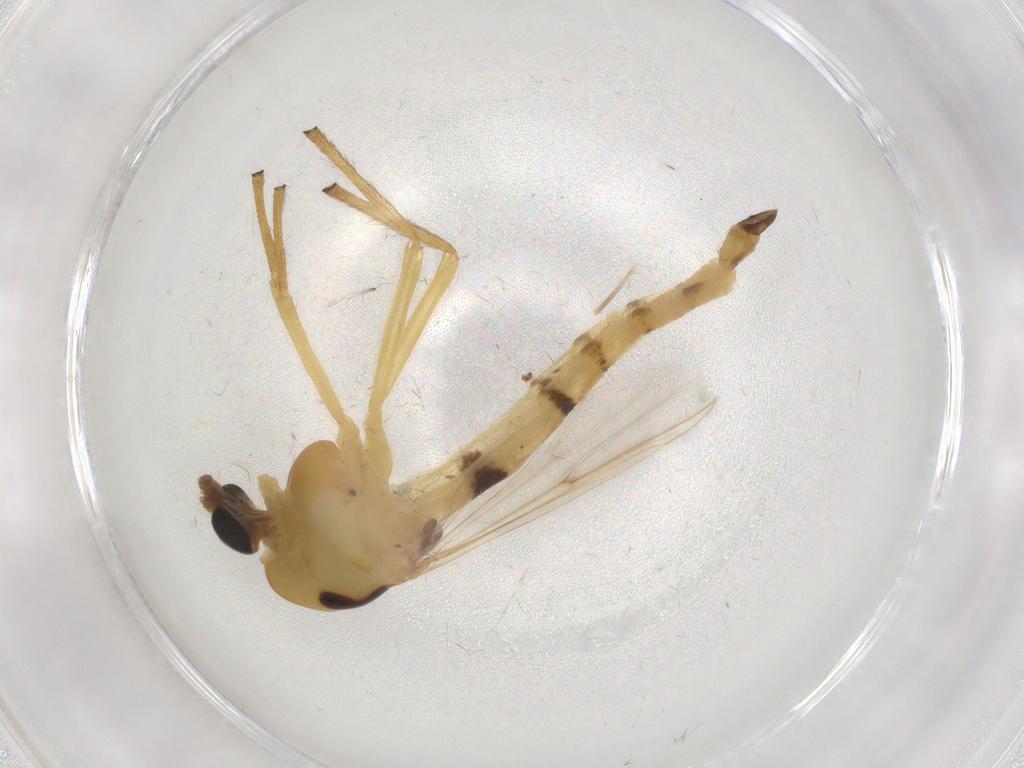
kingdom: Animalia
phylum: Arthropoda
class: Insecta
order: Diptera
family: Chironomidae
